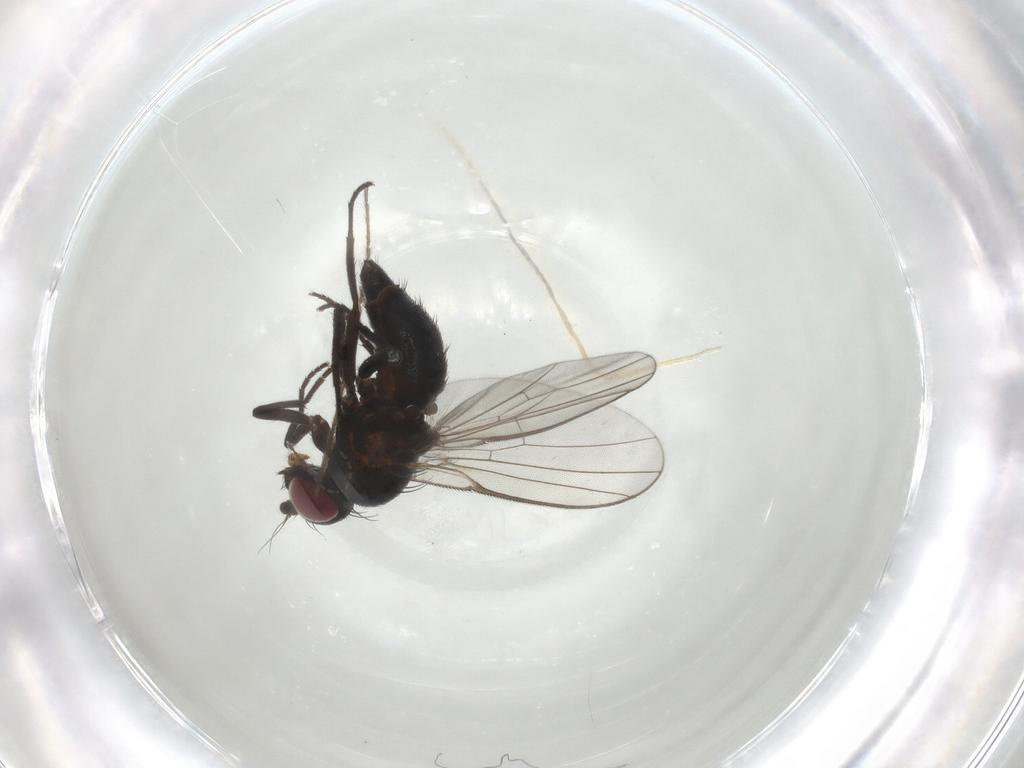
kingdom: Animalia
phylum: Arthropoda
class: Insecta
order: Diptera
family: Agromyzidae
